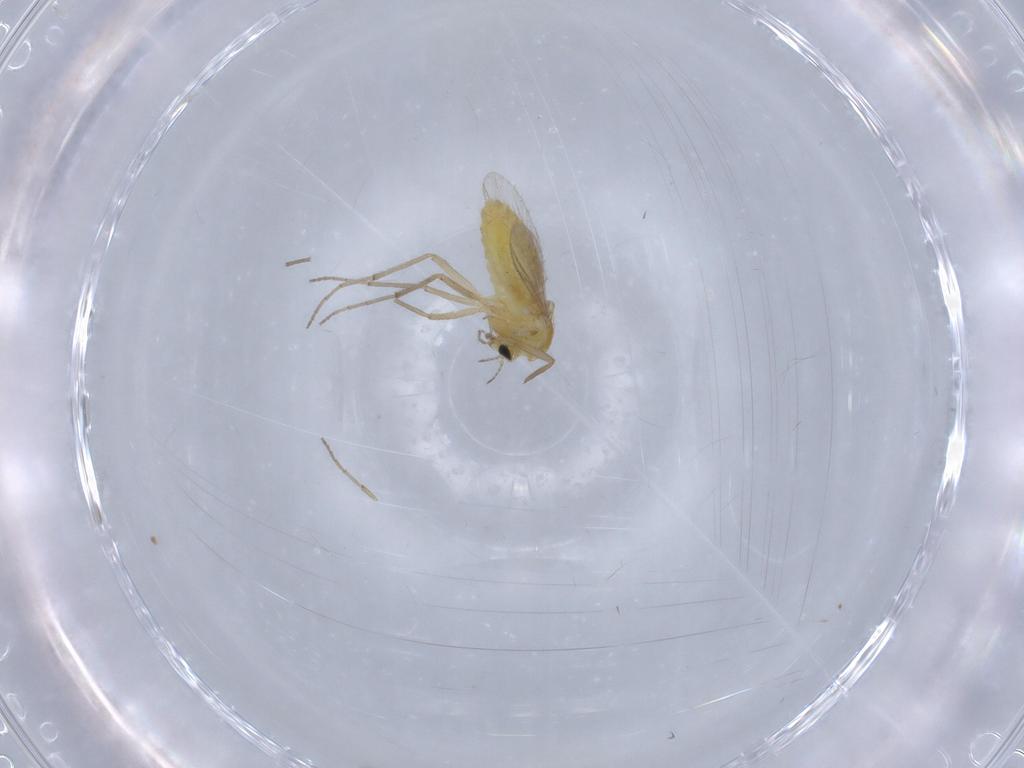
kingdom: Animalia
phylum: Arthropoda
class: Insecta
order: Diptera
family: Chironomidae
